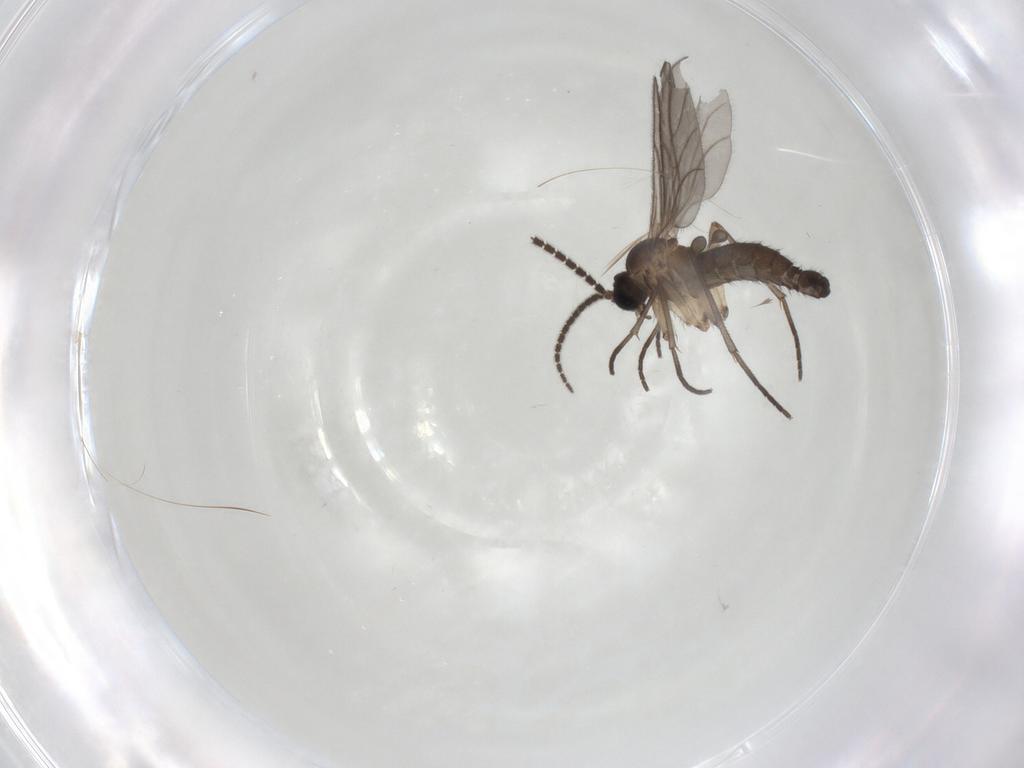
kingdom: Animalia
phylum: Arthropoda
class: Insecta
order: Diptera
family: Sciaridae
